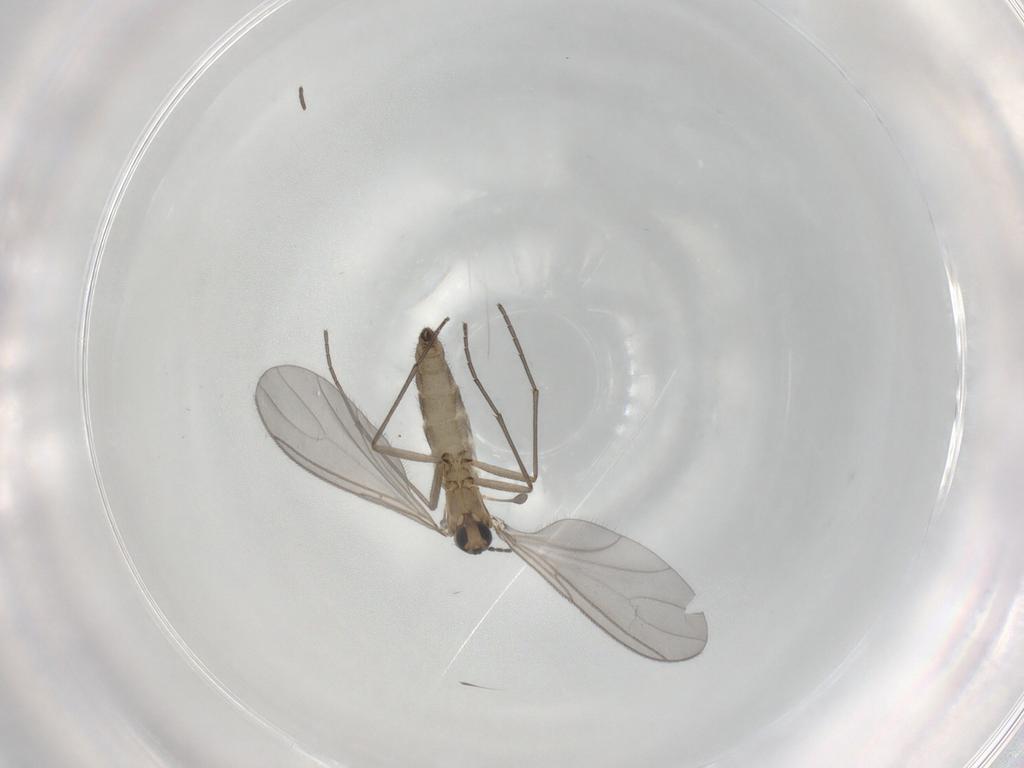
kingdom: Animalia
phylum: Arthropoda
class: Insecta
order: Diptera
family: Sciaridae
